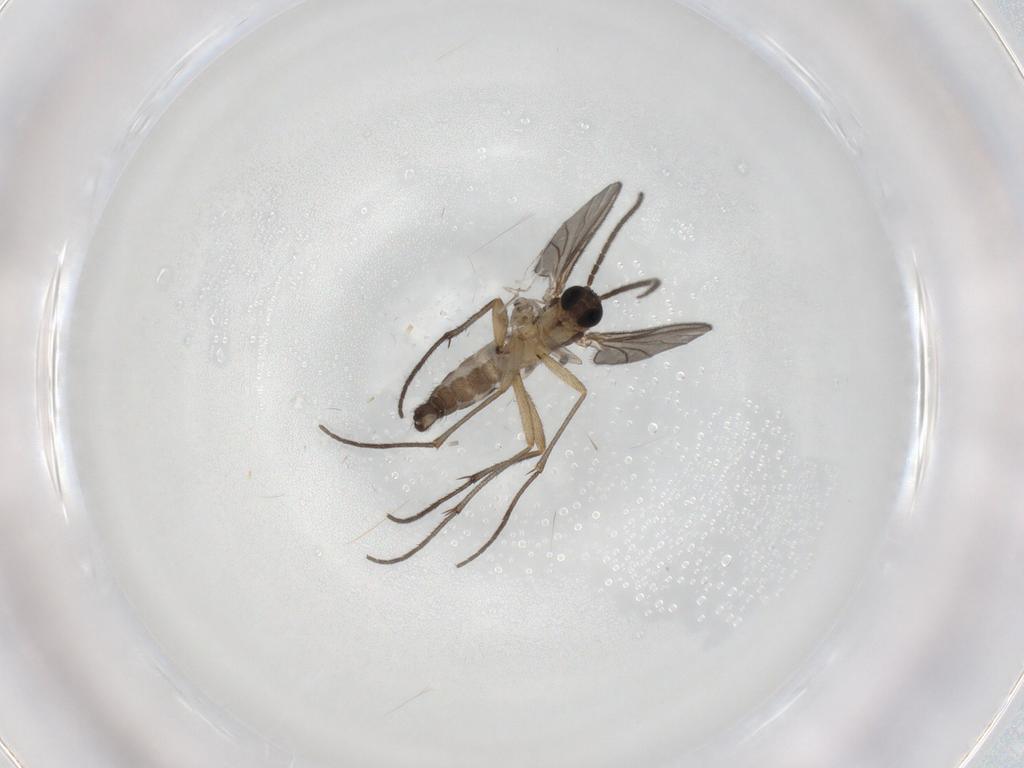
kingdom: Animalia
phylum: Arthropoda
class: Insecta
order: Diptera
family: Sciaridae
